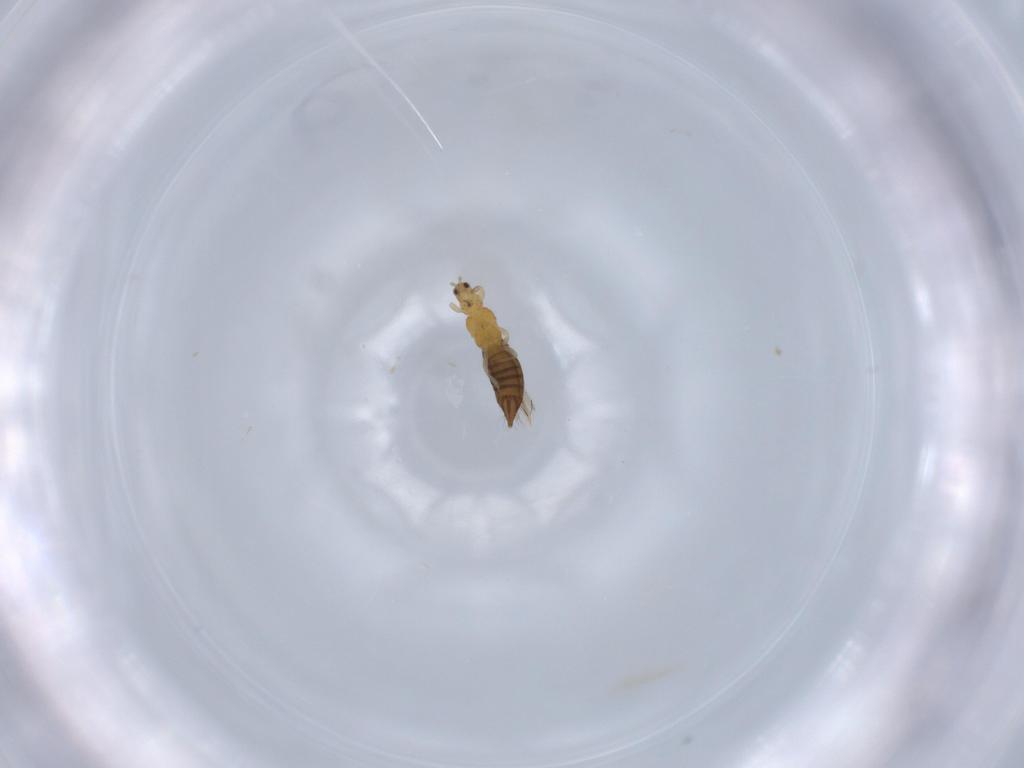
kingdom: Animalia
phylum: Arthropoda
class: Insecta
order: Thysanoptera
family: Thripidae
